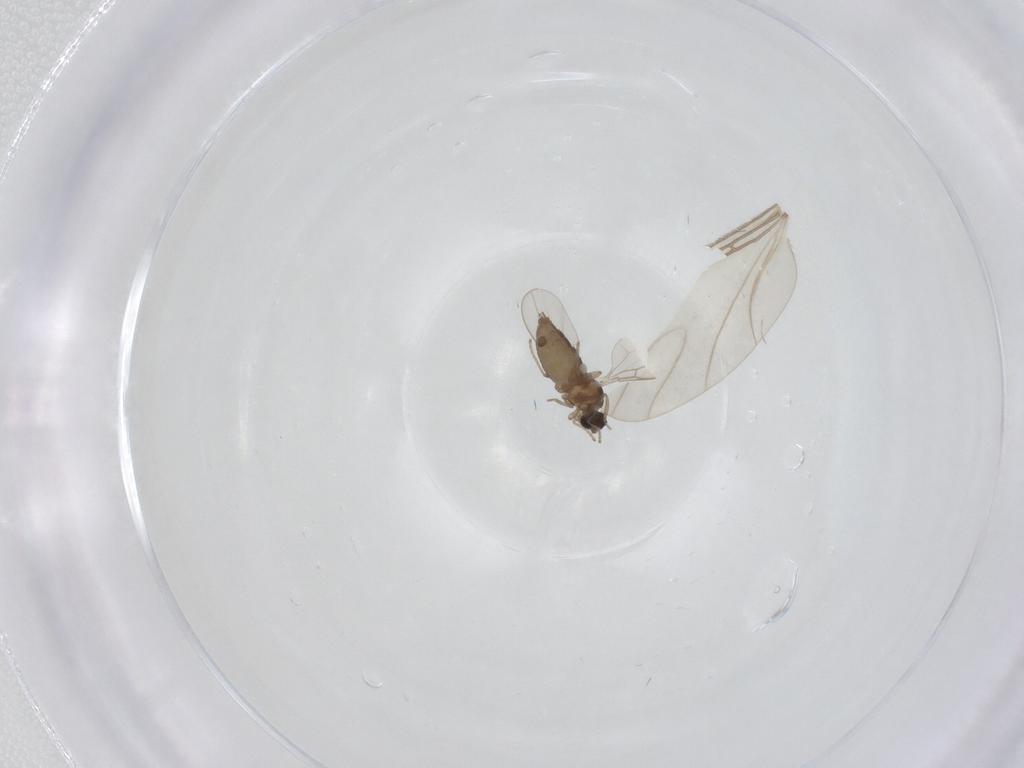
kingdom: Animalia
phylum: Arthropoda
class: Insecta
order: Diptera
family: Cecidomyiidae
